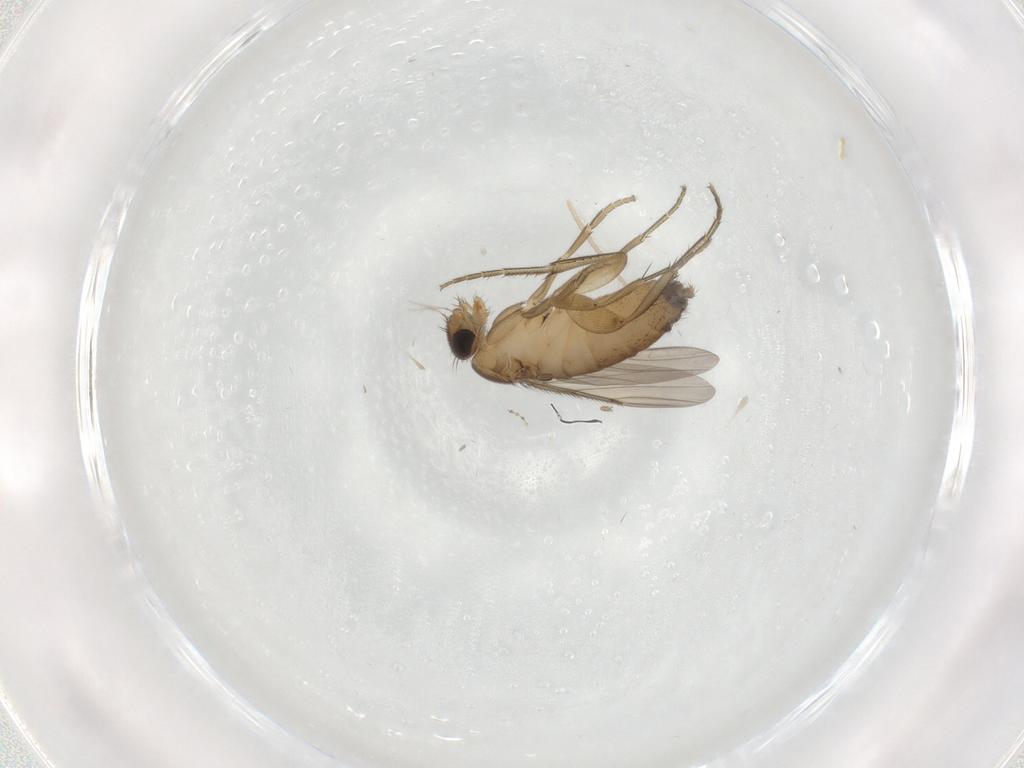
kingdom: Animalia
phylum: Arthropoda
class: Insecta
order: Diptera
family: Phoridae
